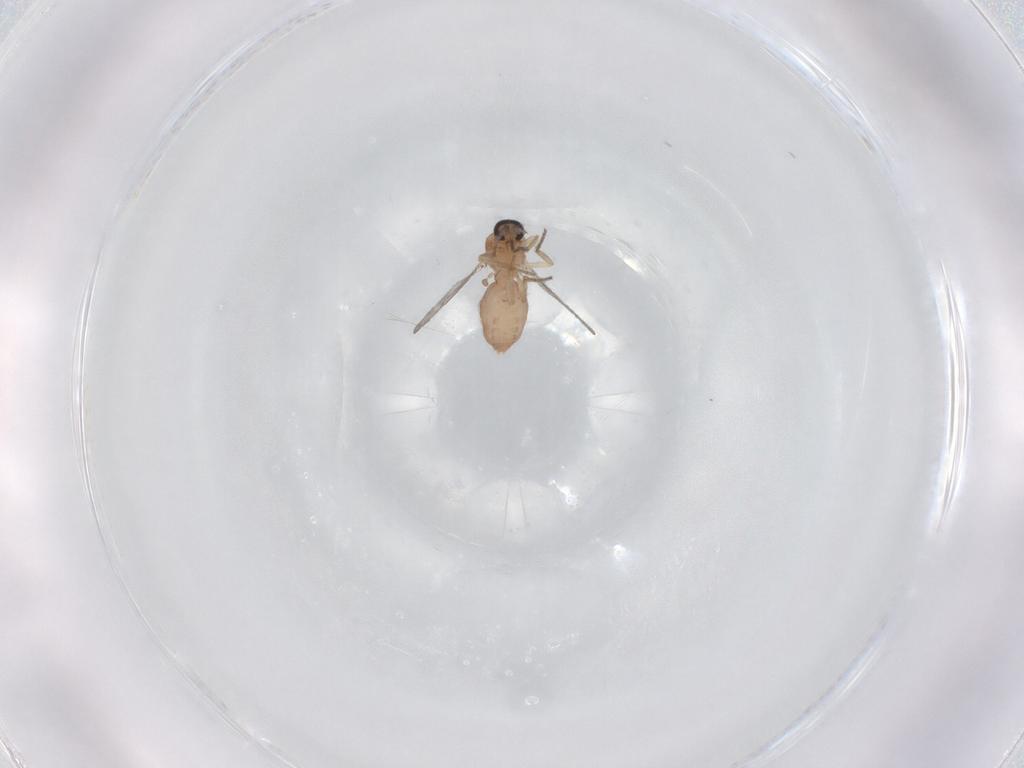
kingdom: Animalia
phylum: Arthropoda
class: Insecta
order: Diptera
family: Ceratopogonidae
